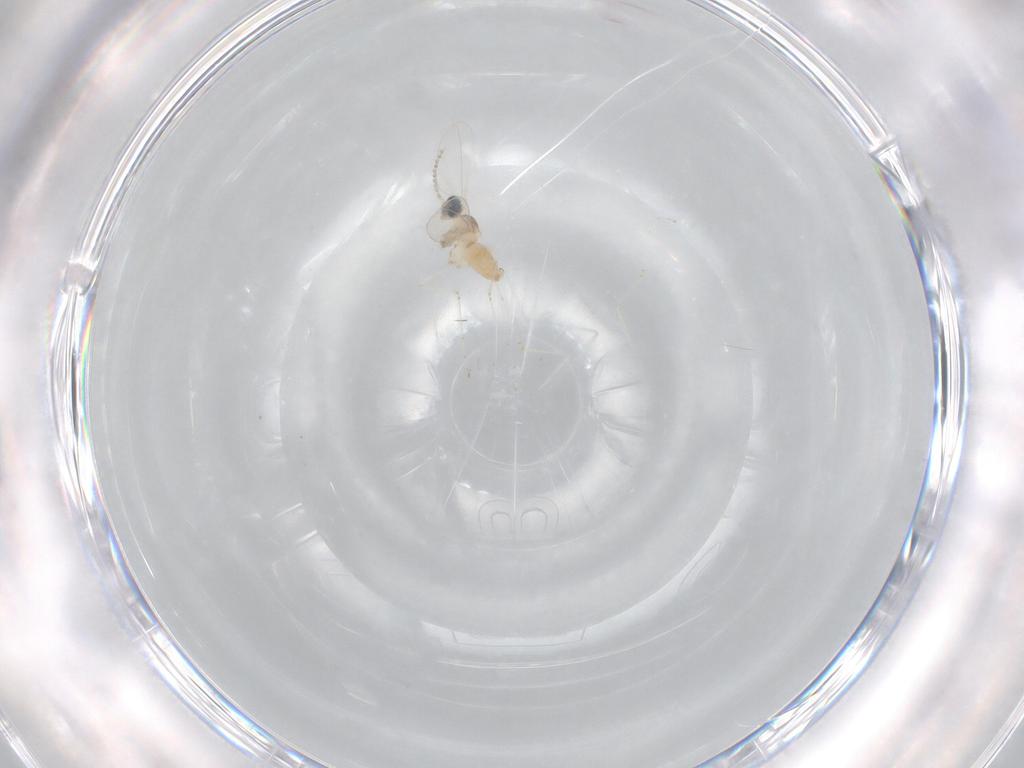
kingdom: Animalia
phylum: Arthropoda
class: Insecta
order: Diptera
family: Cecidomyiidae
